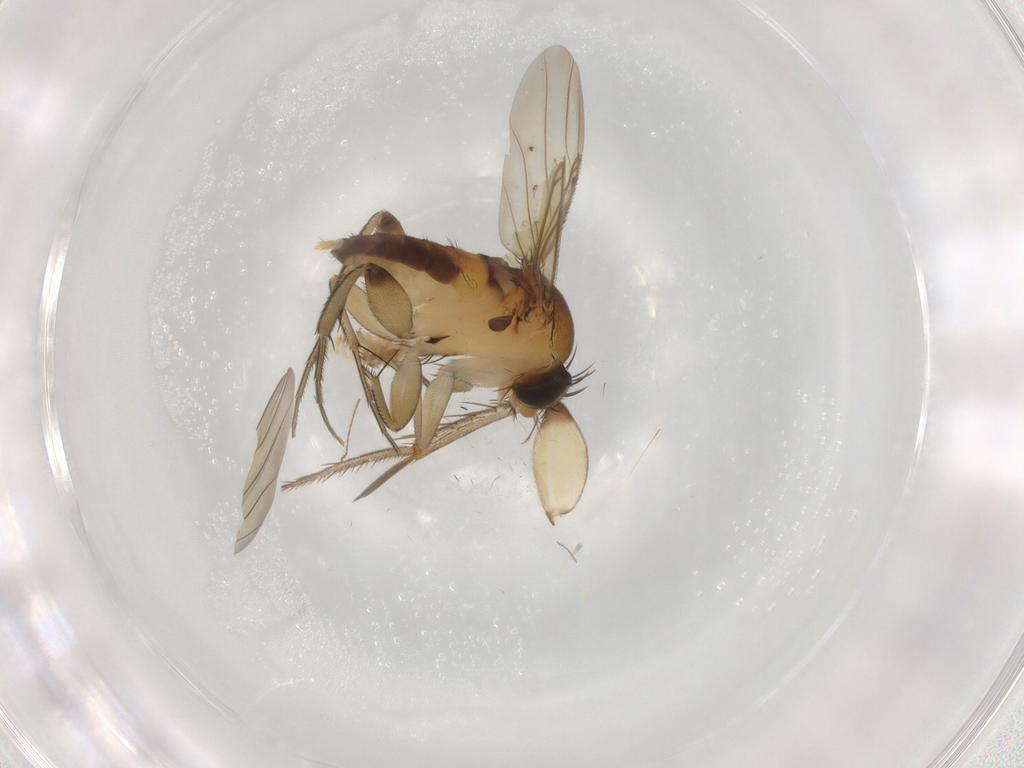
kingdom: Animalia
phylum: Arthropoda
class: Insecta
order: Diptera
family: Phoridae
